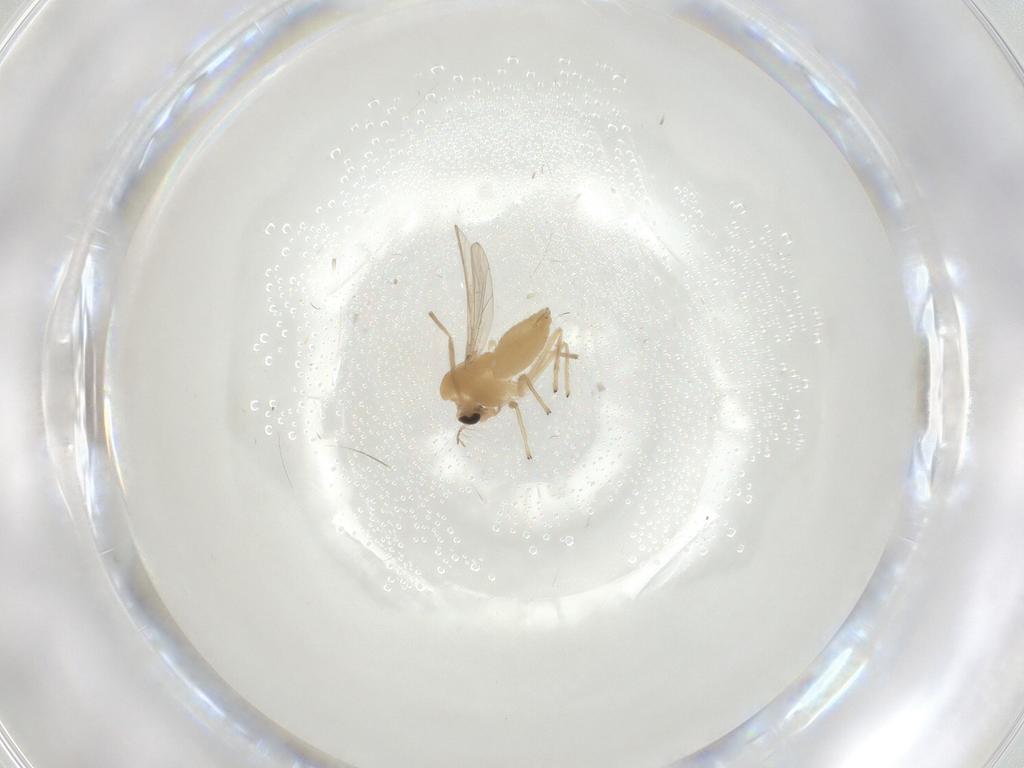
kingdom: Animalia
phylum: Arthropoda
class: Insecta
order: Diptera
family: Chironomidae
